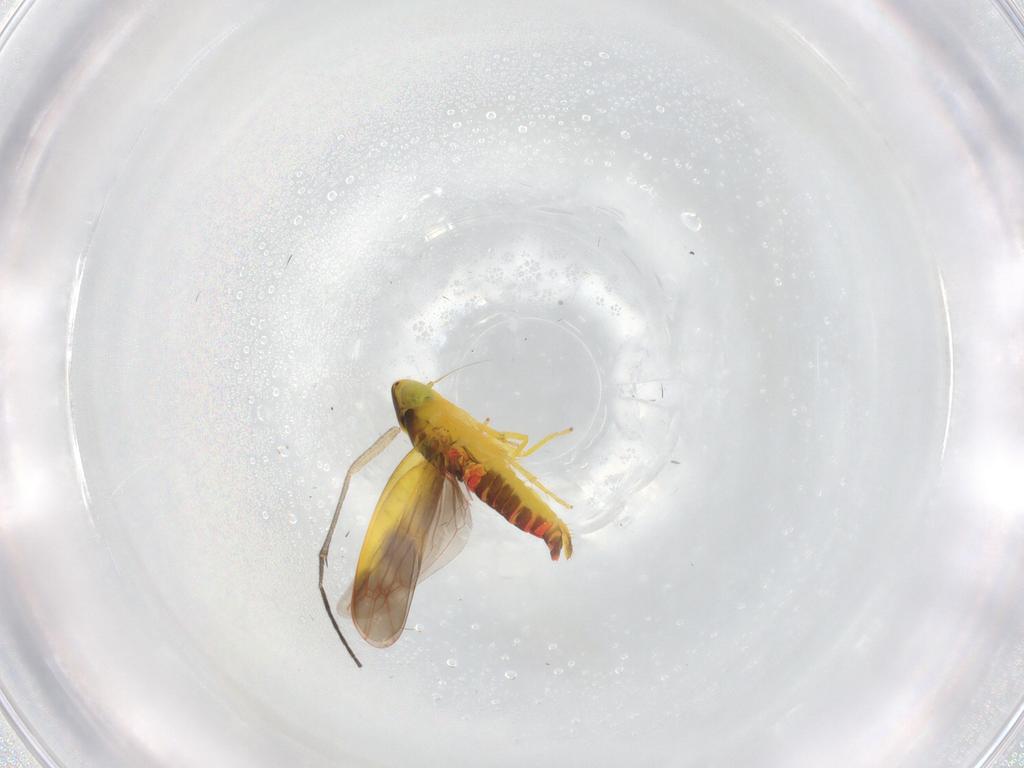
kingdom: Animalia
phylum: Arthropoda
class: Insecta
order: Hemiptera
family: Cicadellidae
